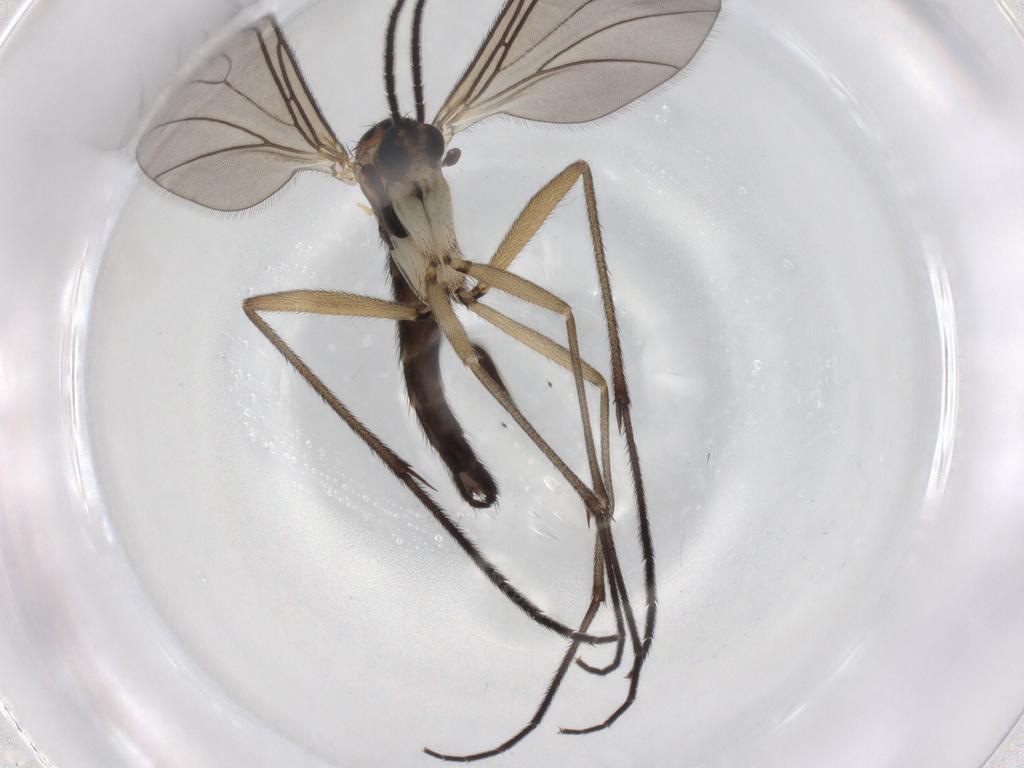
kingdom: Animalia
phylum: Arthropoda
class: Insecta
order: Diptera
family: Sciaridae
